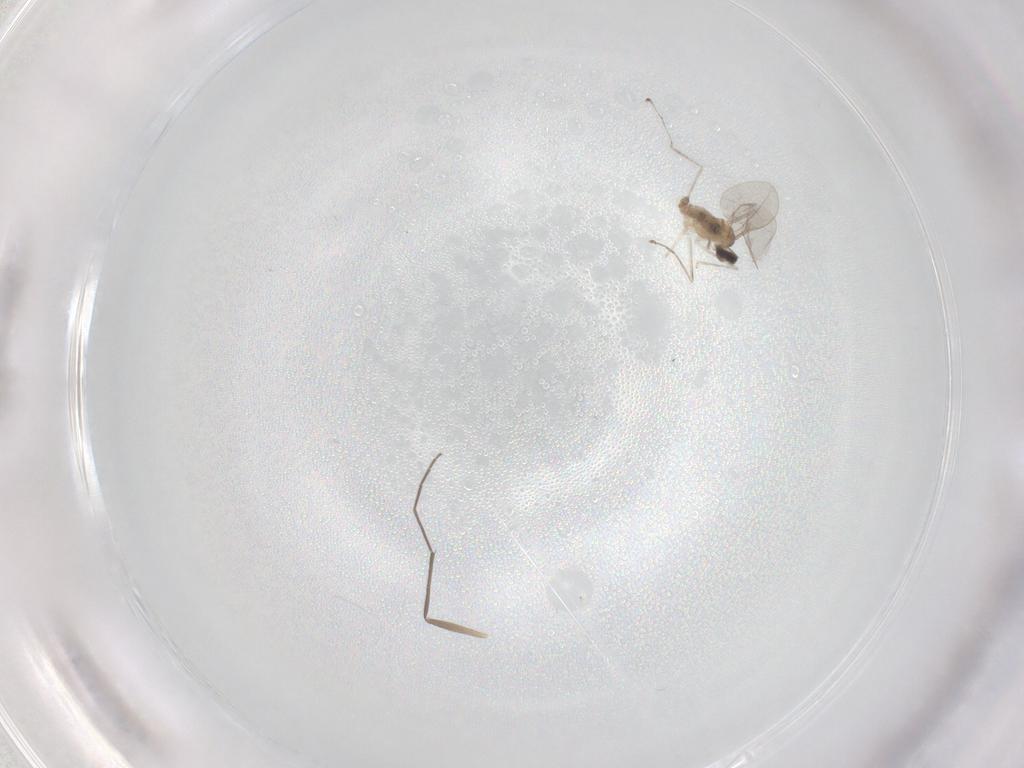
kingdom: Animalia
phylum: Arthropoda
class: Insecta
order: Diptera
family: Cecidomyiidae
